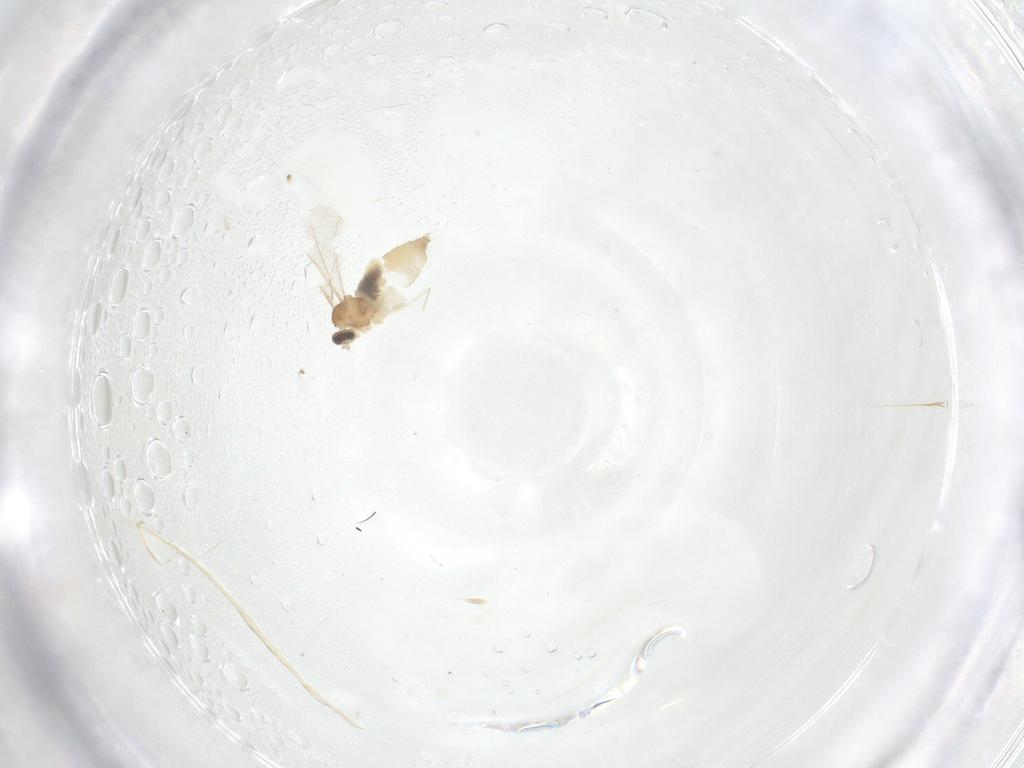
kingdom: Animalia
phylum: Arthropoda
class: Insecta
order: Diptera
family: Cecidomyiidae
